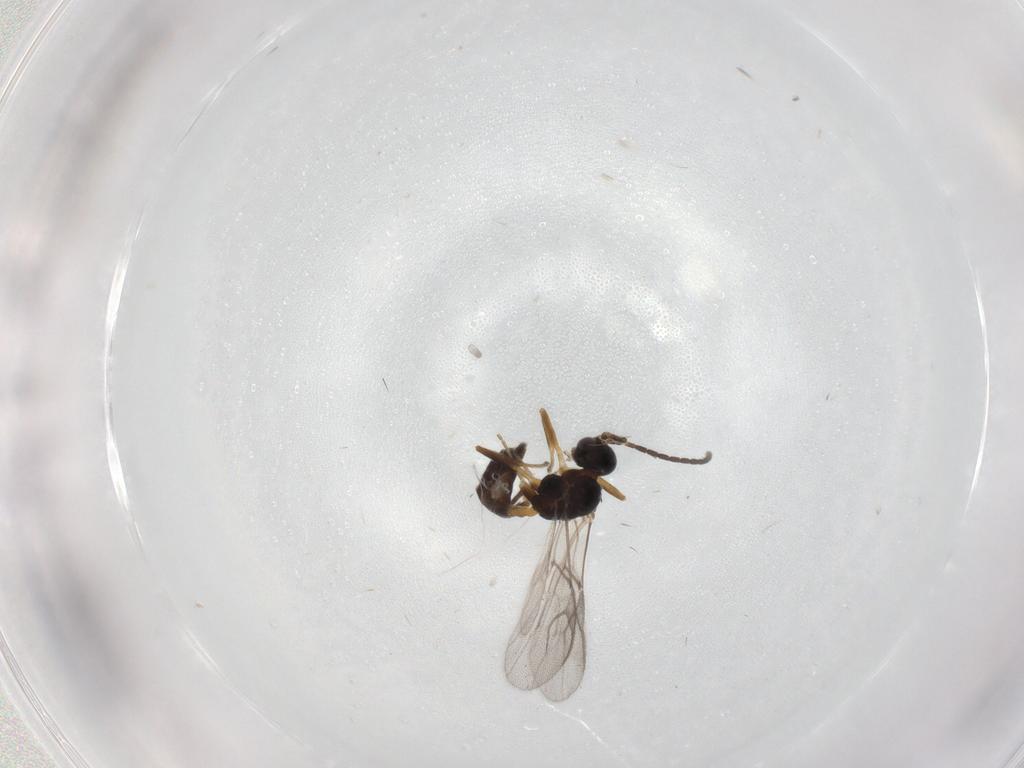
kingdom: Animalia
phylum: Arthropoda
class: Insecta
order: Hymenoptera
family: Braconidae
